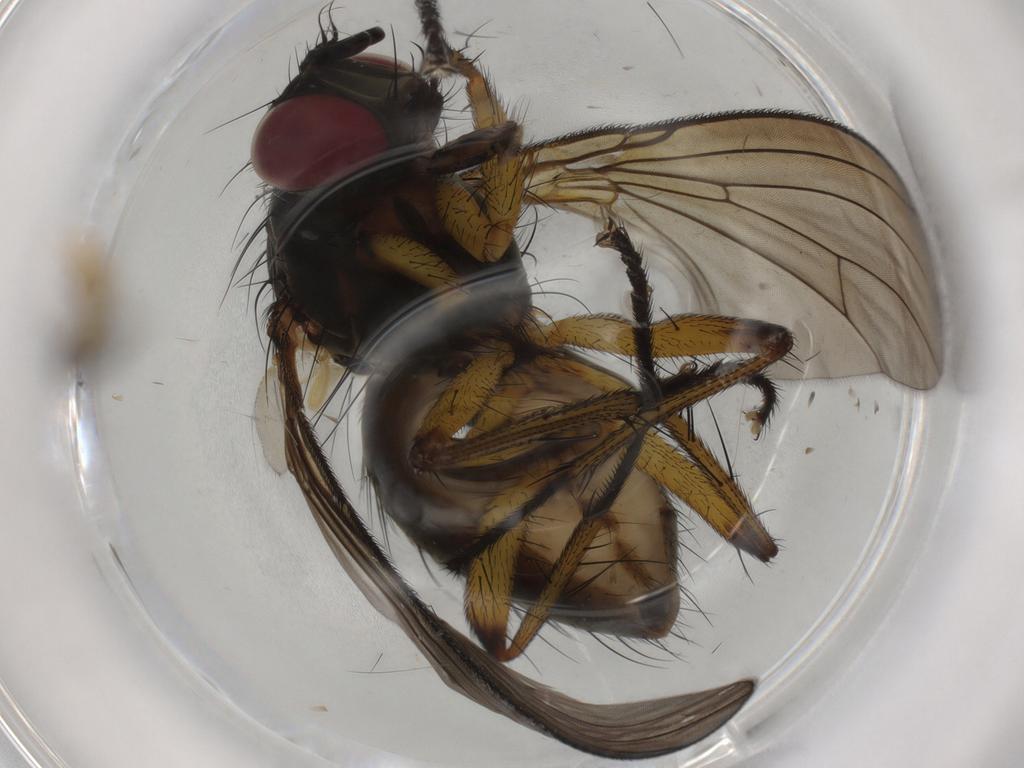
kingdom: Animalia
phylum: Arthropoda
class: Insecta
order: Diptera
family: Muscidae
